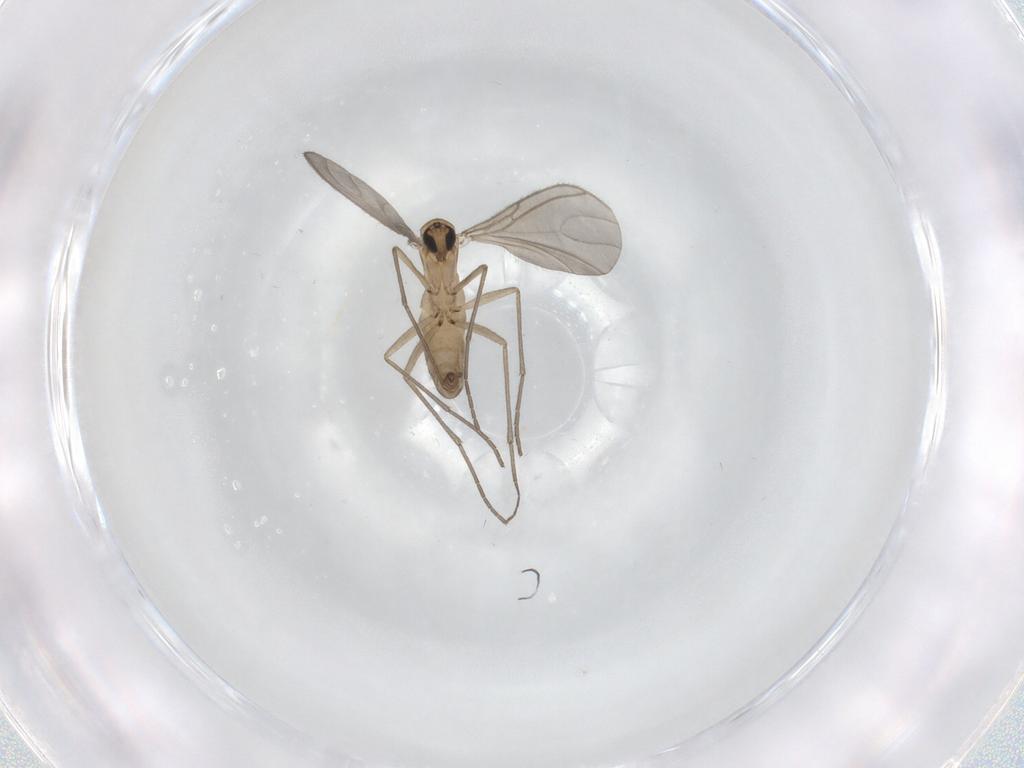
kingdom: Animalia
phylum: Arthropoda
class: Insecta
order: Diptera
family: Sciaridae
